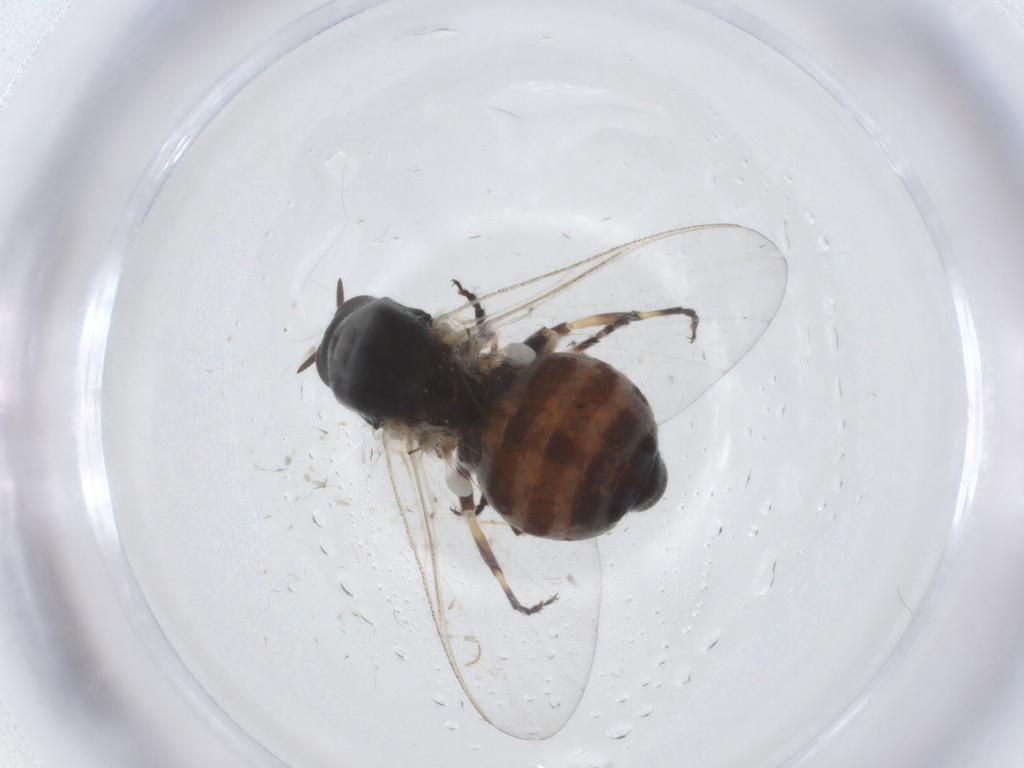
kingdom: Animalia
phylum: Arthropoda
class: Insecta
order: Diptera
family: Simuliidae
